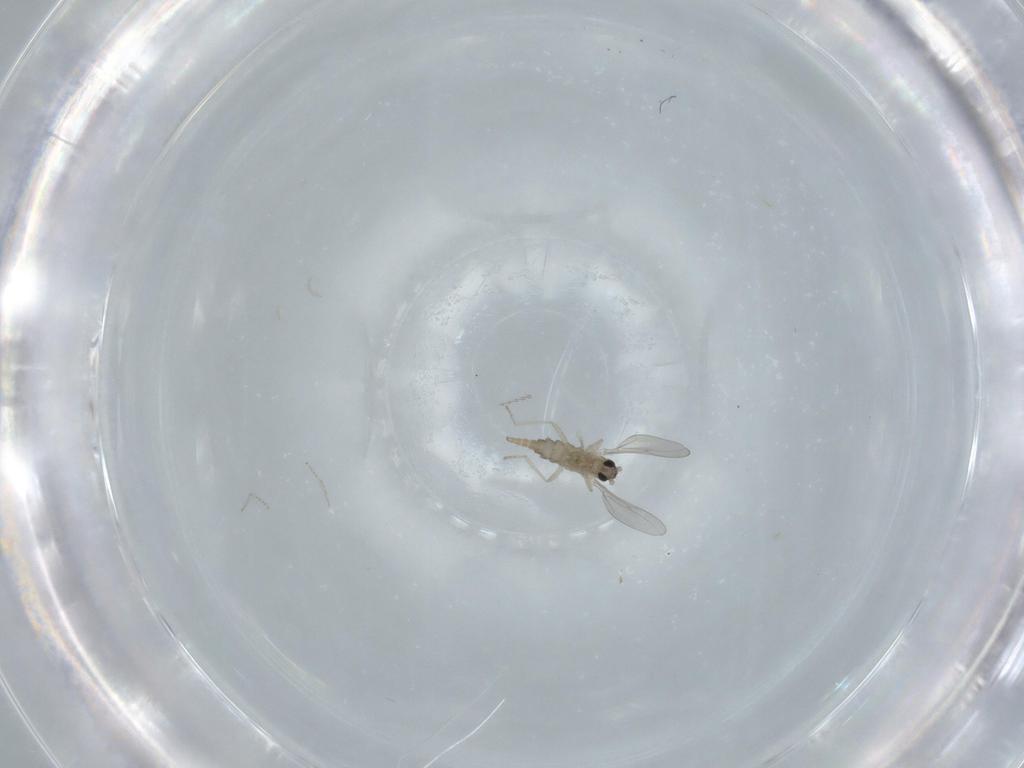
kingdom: Animalia
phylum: Arthropoda
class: Insecta
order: Diptera
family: Cecidomyiidae
